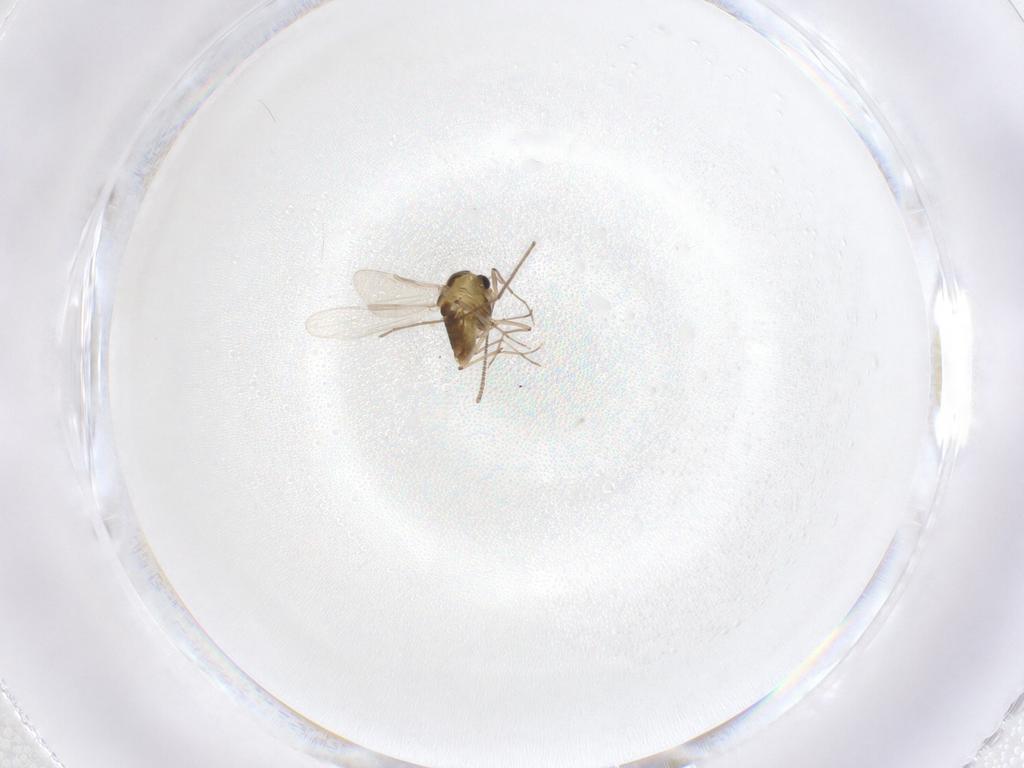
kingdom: Animalia
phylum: Arthropoda
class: Insecta
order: Diptera
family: Chironomidae
